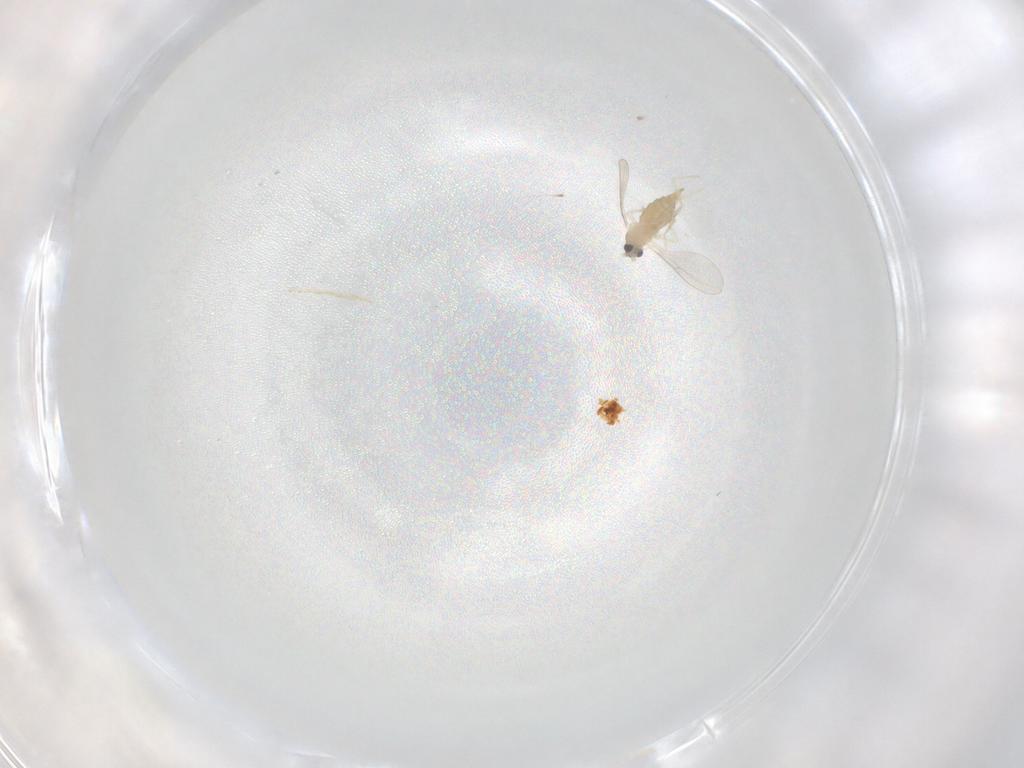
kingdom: Animalia
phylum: Arthropoda
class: Insecta
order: Diptera
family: Cecidomyiidae
